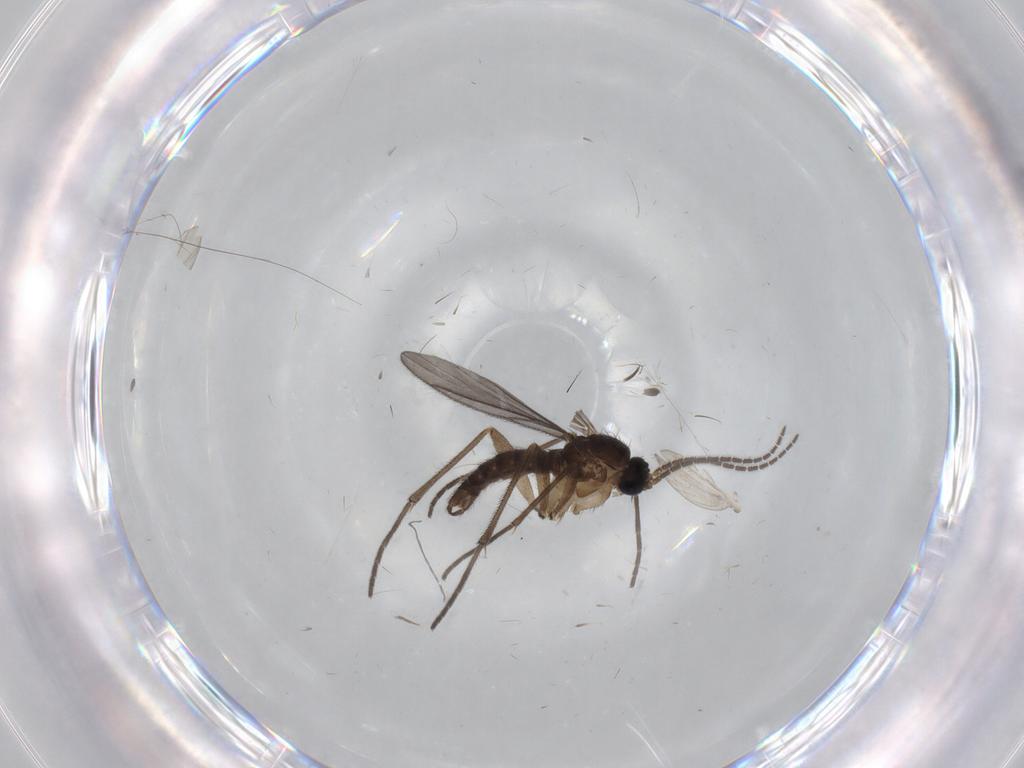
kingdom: Animalia
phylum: Arthropoda
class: Insecta
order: Diptera
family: Sciaridae
